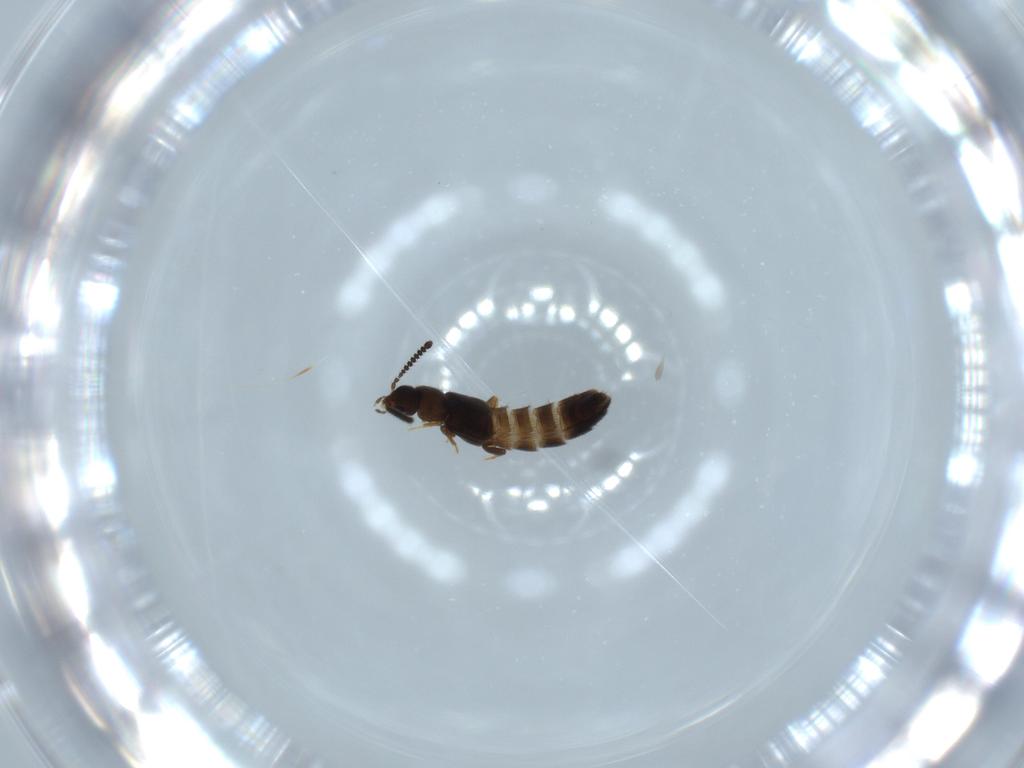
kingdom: Animalia
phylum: Arthropoda
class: Insecta
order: Coleoptera
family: Staphylinidae
